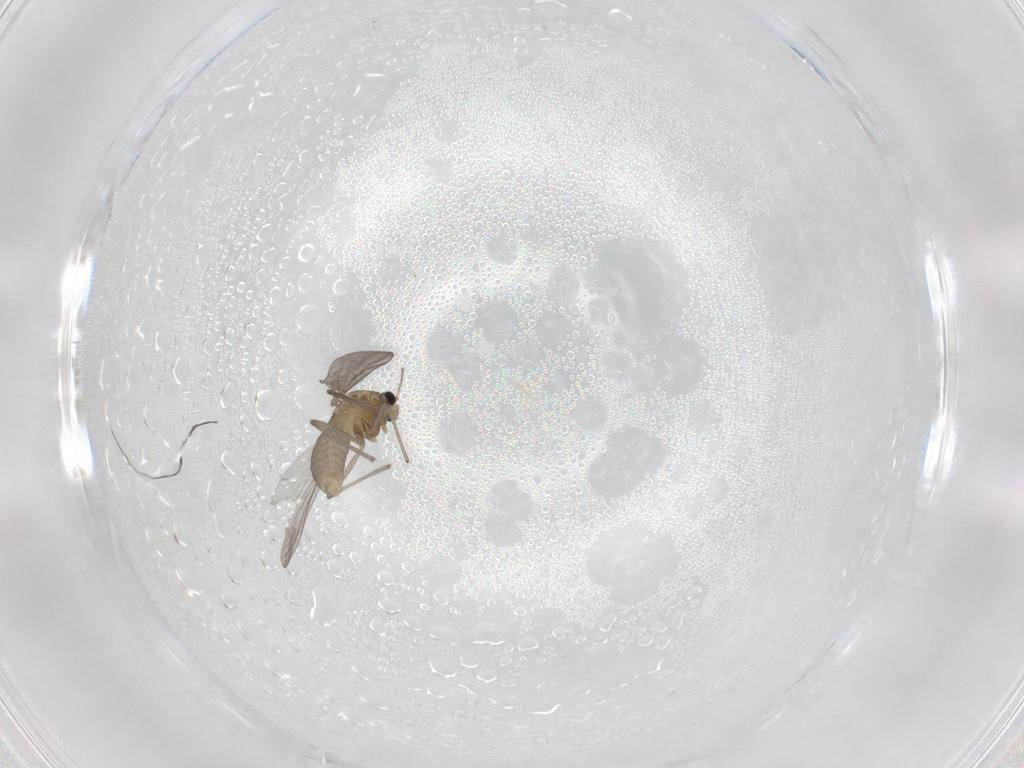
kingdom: Animalia
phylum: Arthropoda
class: Insecta
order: Diptera
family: Chironomidae
